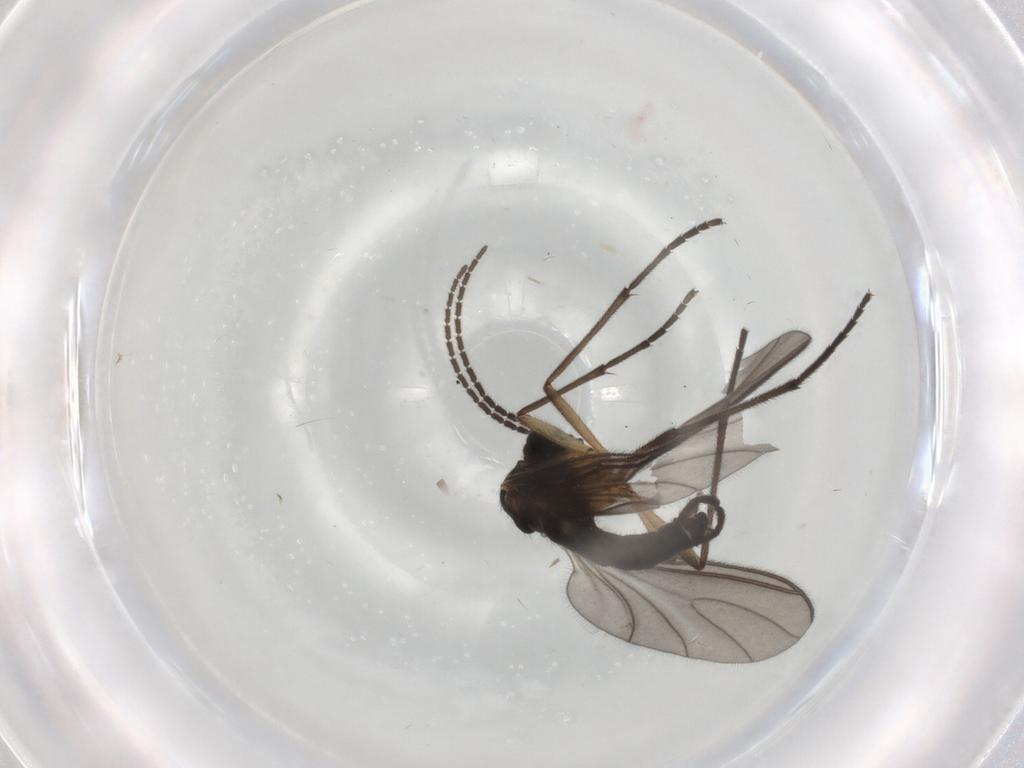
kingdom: Animalia
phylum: Arthropoda
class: Insecta
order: Diptera
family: Sciaridae
